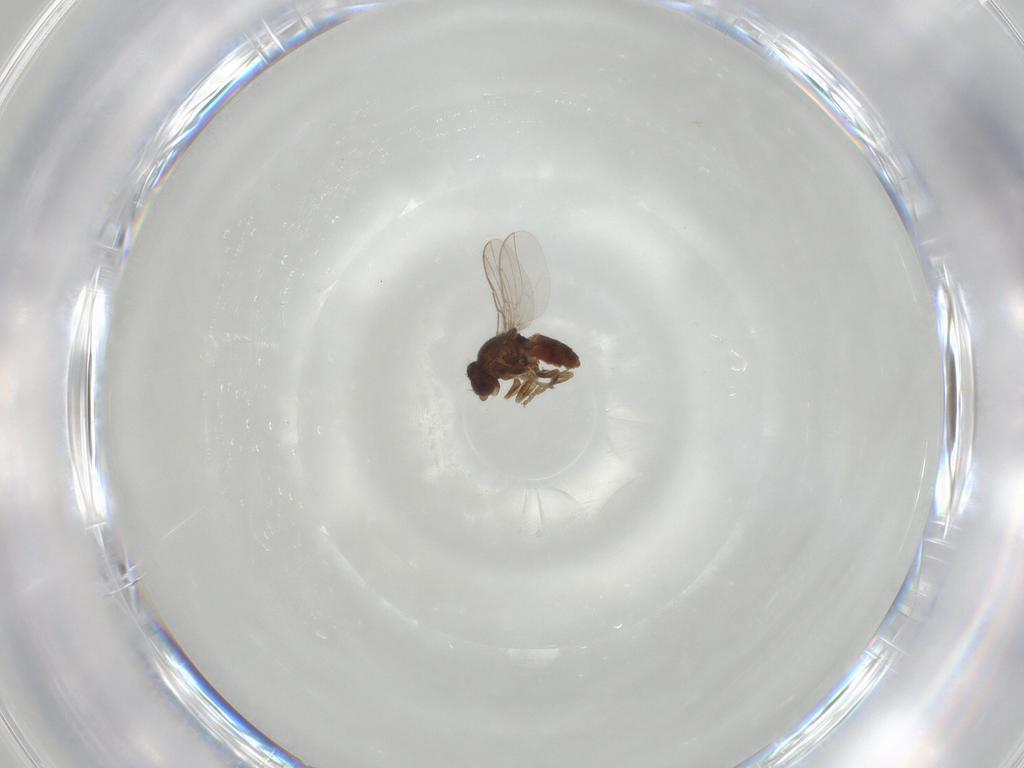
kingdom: Animalia
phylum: Arthropoda
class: Insecta
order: Diptera
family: Chloropidae
